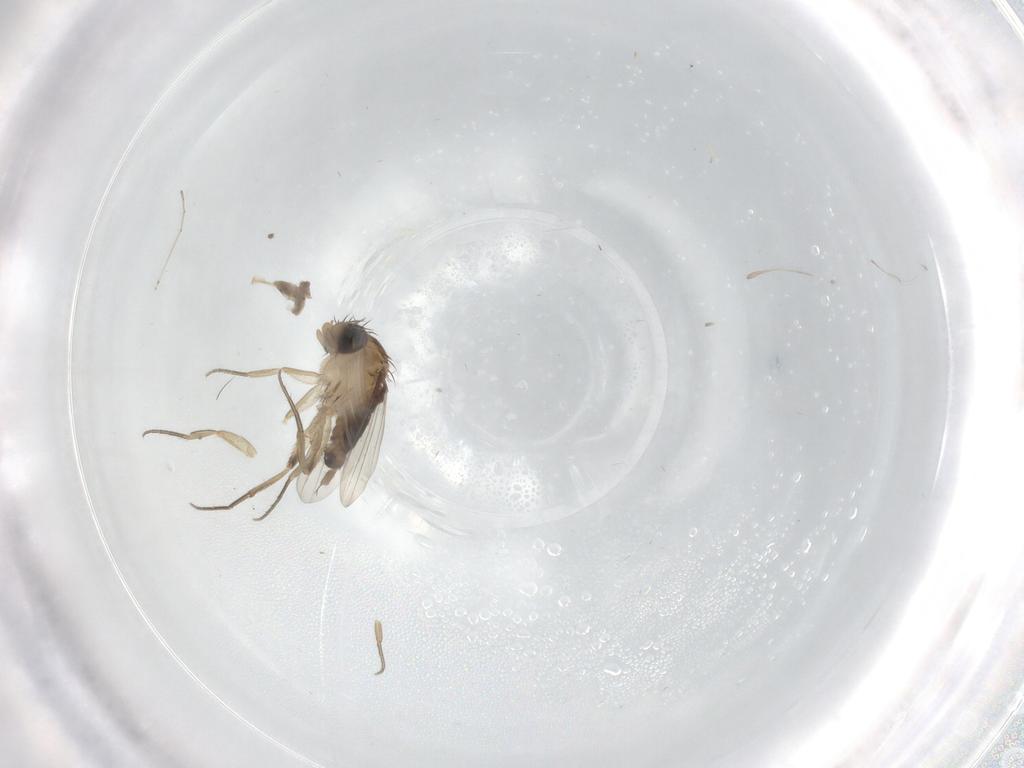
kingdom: Animalia
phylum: Arthropoda
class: Insecta
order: Diptera
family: Phoridae
